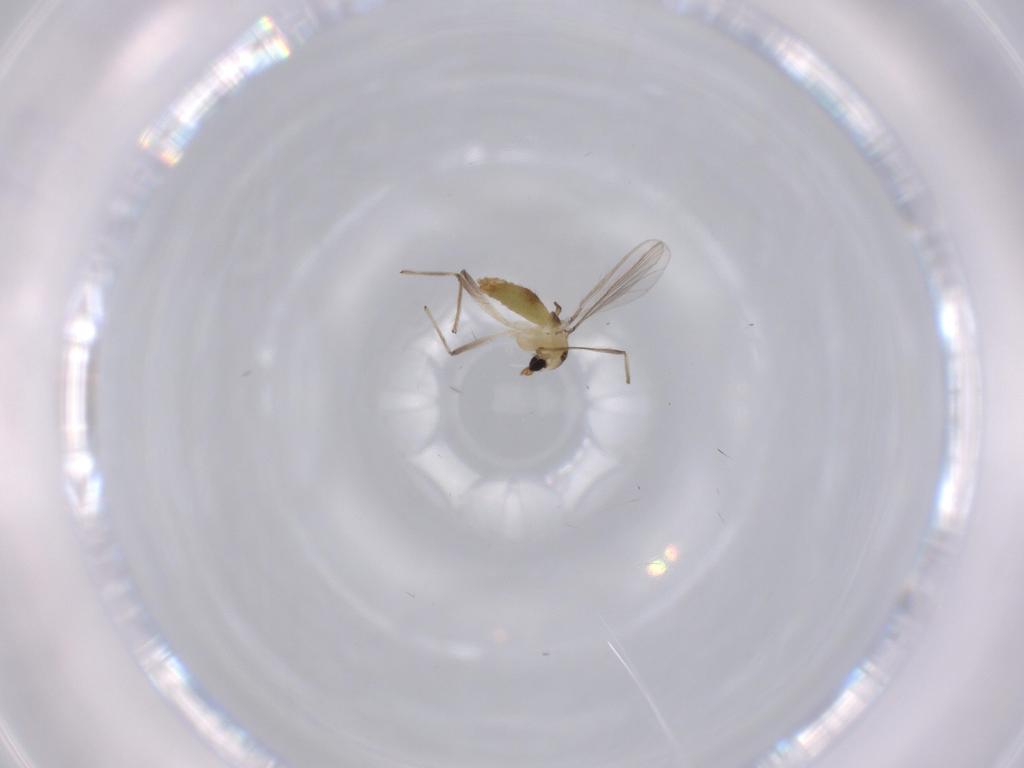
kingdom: Animalia
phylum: Arthropoda
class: Insecta
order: Diptera
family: Chironomidae
